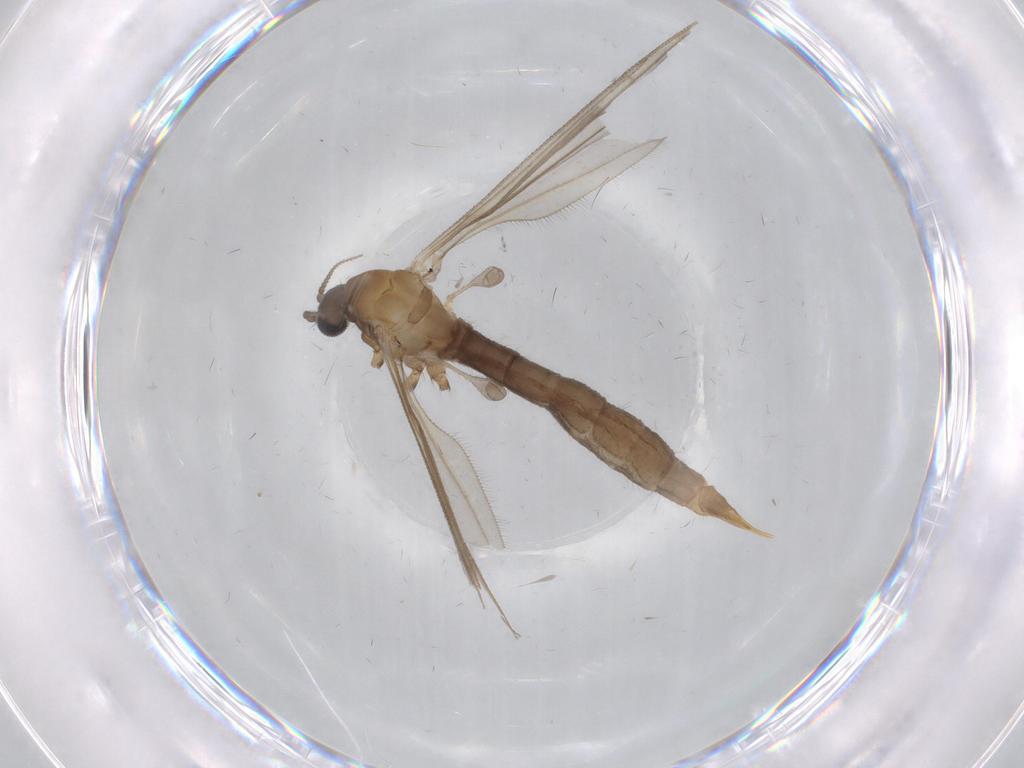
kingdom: Animalia
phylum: Arthropoda
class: Insecta
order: Diptera
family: Limoniidae
